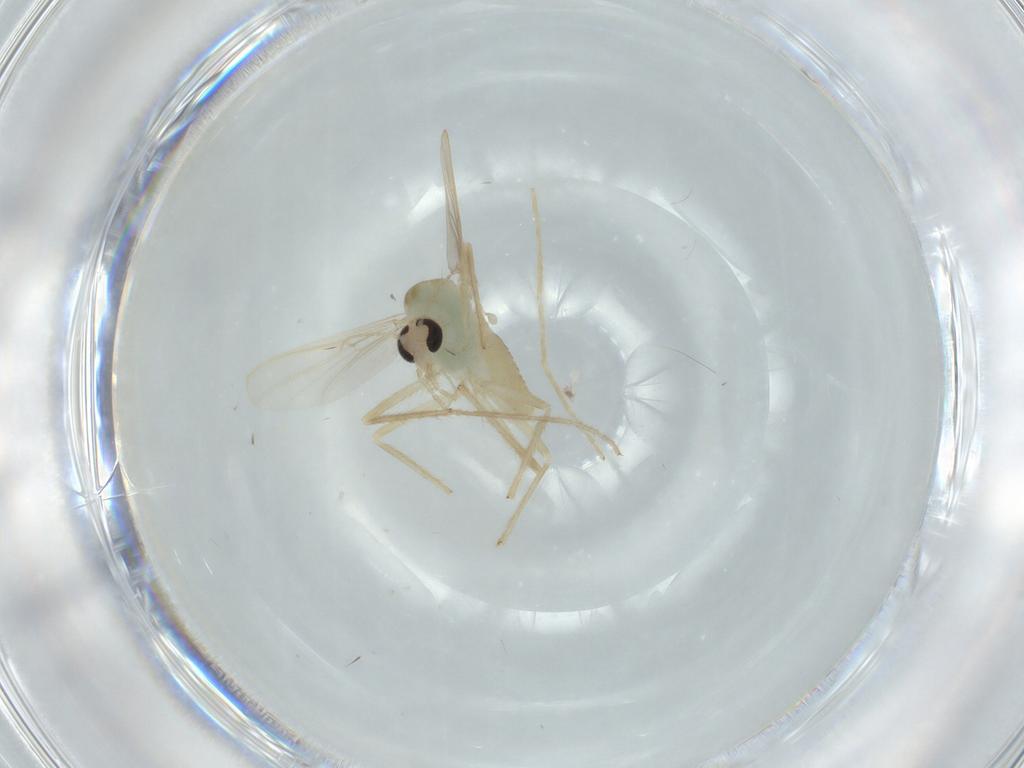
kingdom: Animalia
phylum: Arthropoda
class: Insecta
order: Diptera
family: Chironomidae
